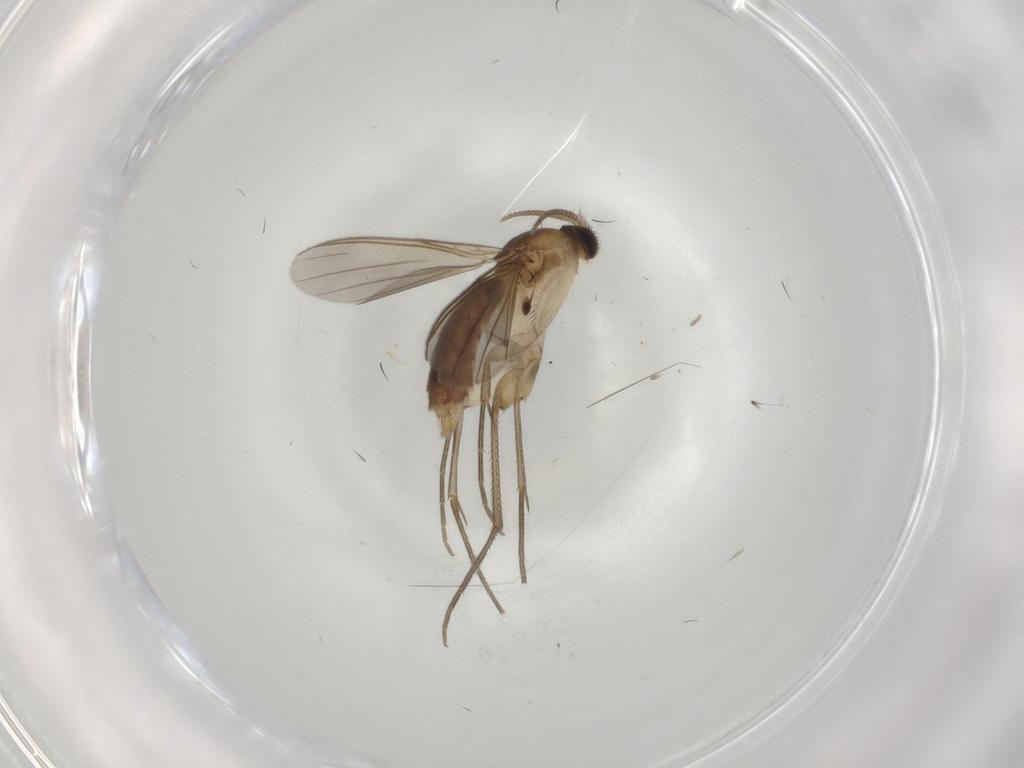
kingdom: Animalia
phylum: Arthropoda
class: Insecta
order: Diptera
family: Mycetophilidae
